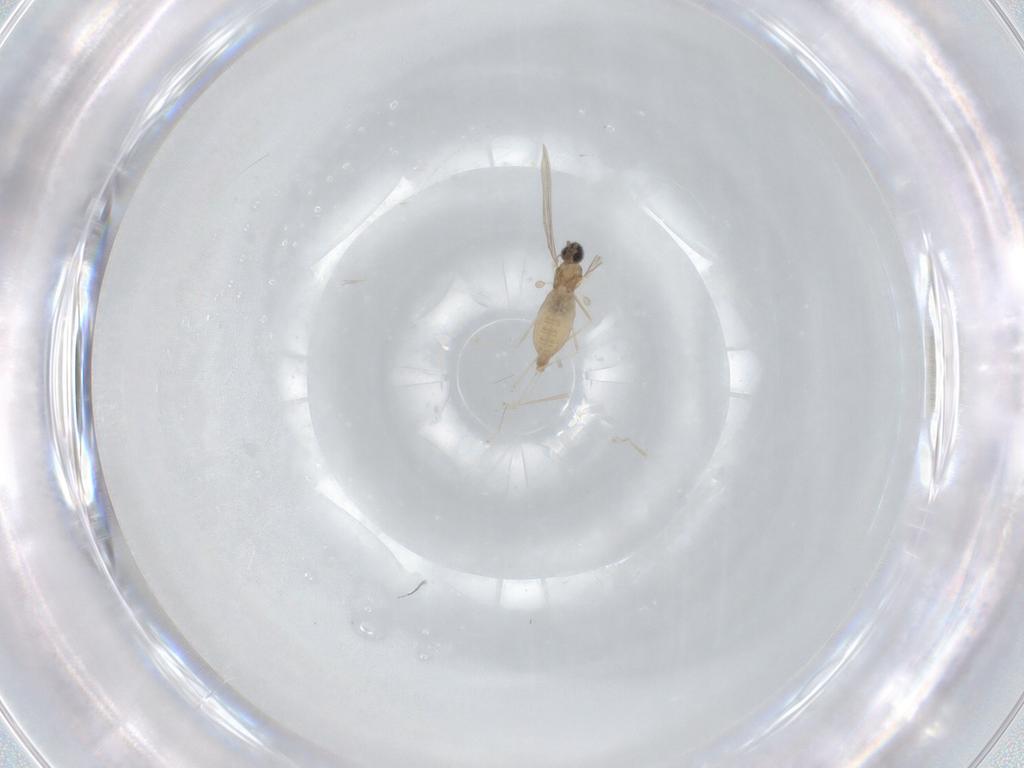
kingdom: Animalia
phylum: Arthropoda
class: Insecta
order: Diptera
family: Cecidomyiidae
